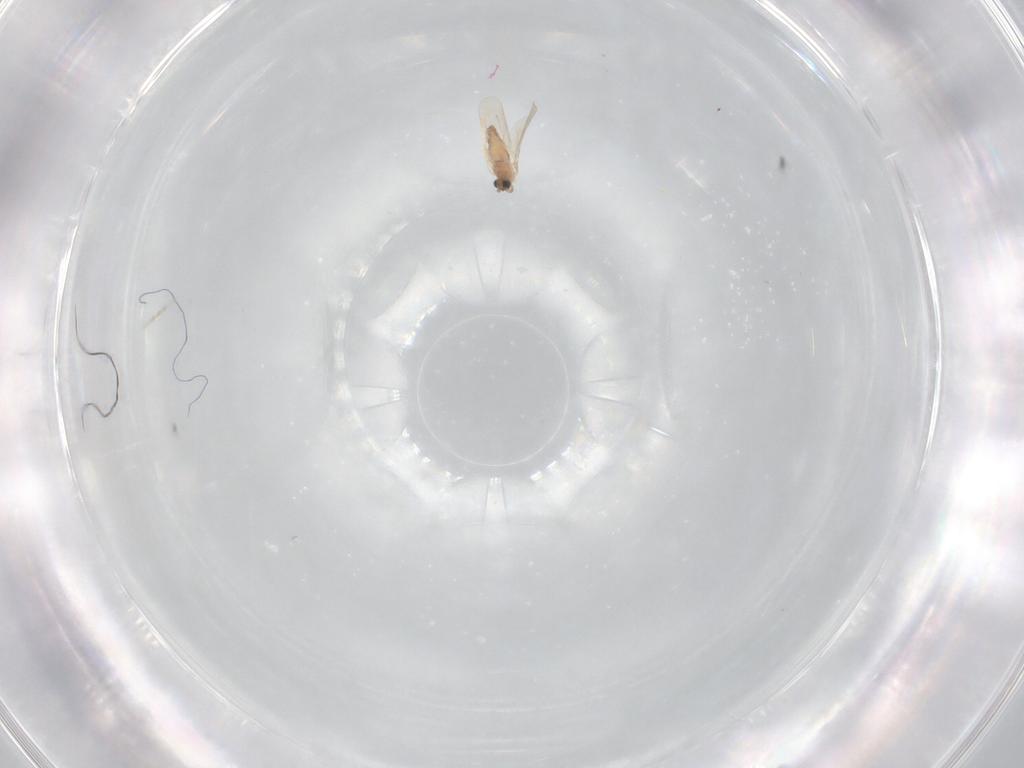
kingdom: Animalia
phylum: Arthropoda
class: Insecta
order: Diptera
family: Cecidomyiidae
